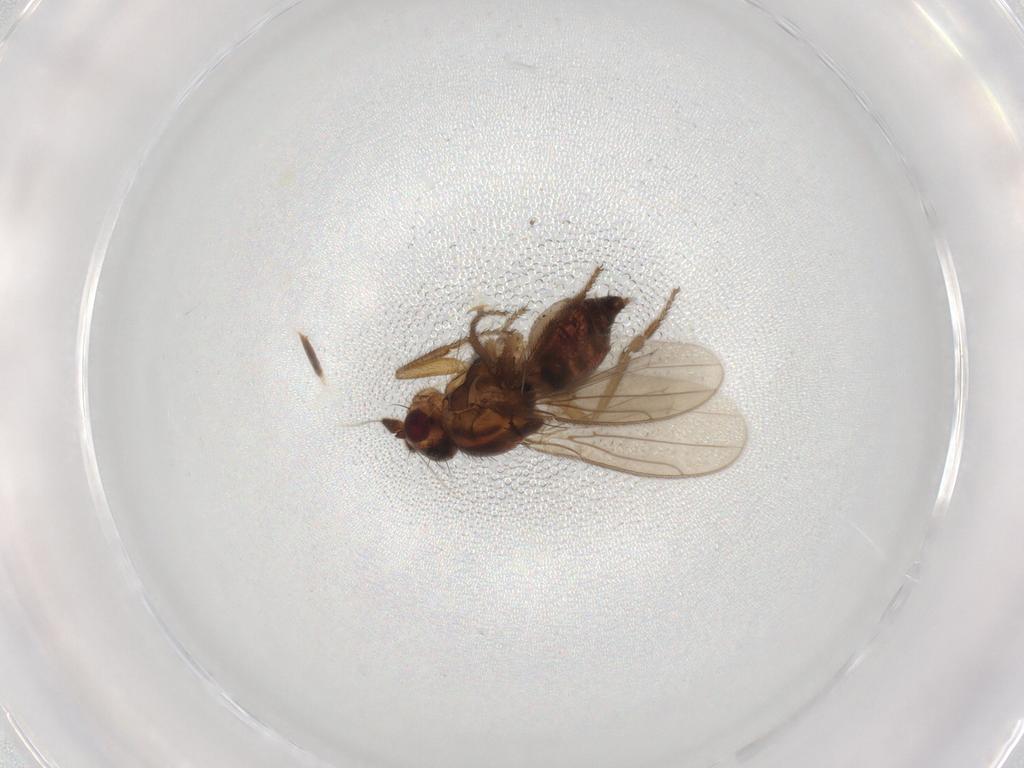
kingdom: Animalia
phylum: Arthropoda
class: Insecta
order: Diptera
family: Sphaeroceridae
